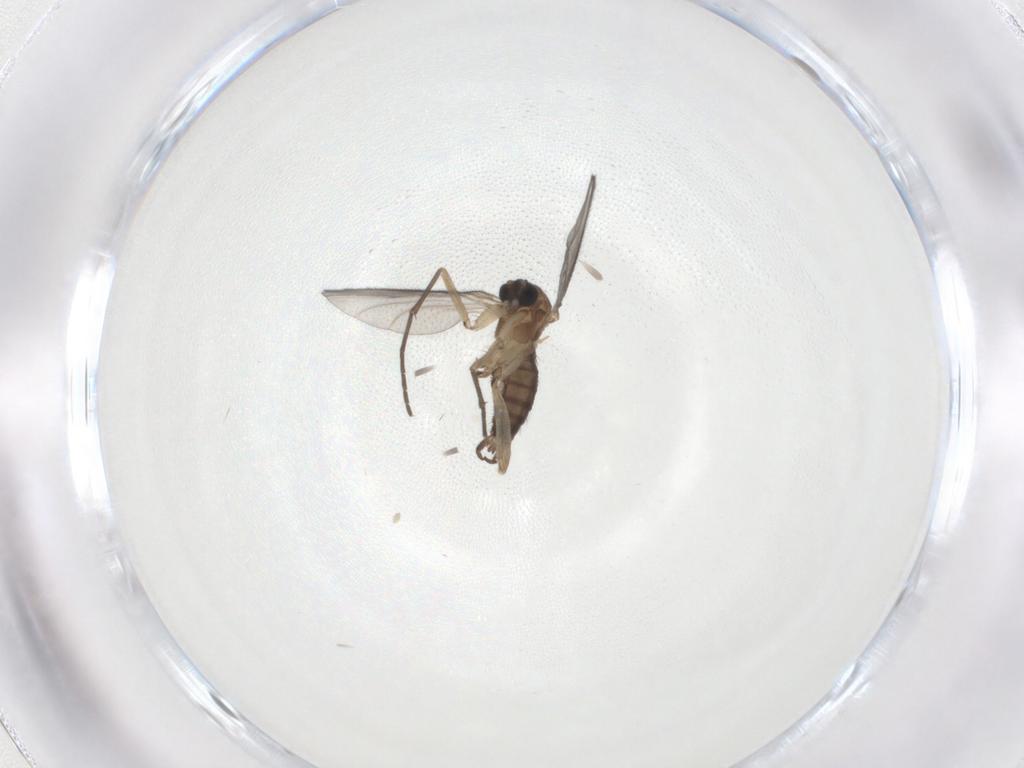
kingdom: Animalia
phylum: Arthropoda
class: Insecta
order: Diptera
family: Sciaridae
